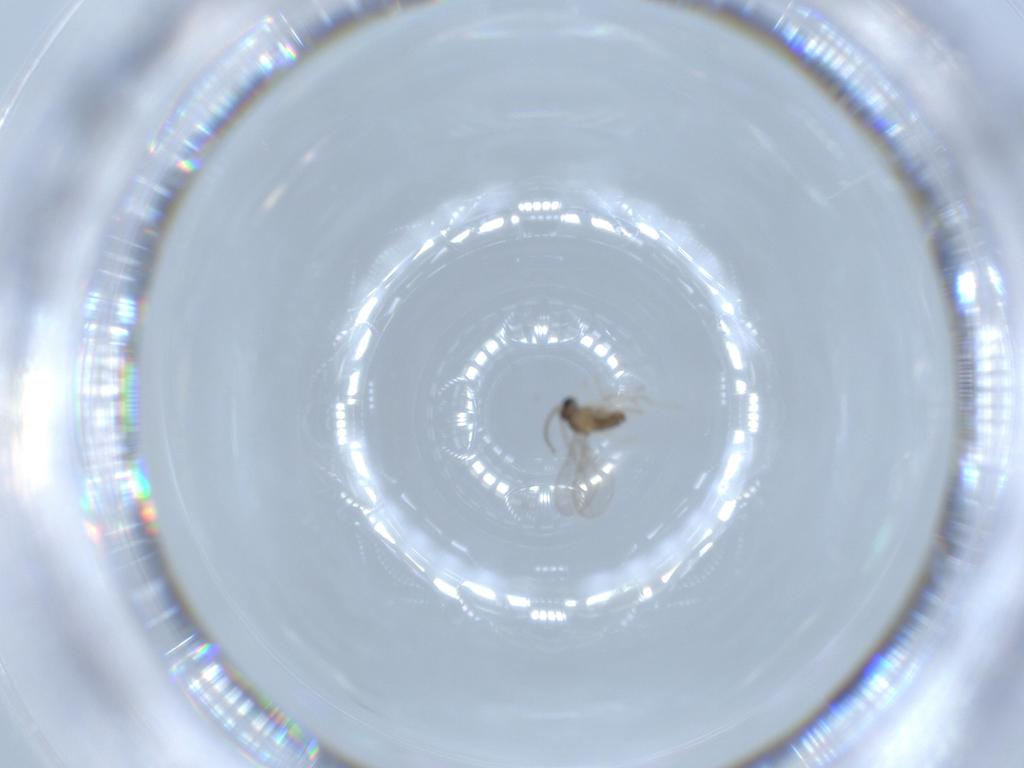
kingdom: Animalia
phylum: Arthropoda
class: Insecta
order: Diptera
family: Cecidomyiidae
